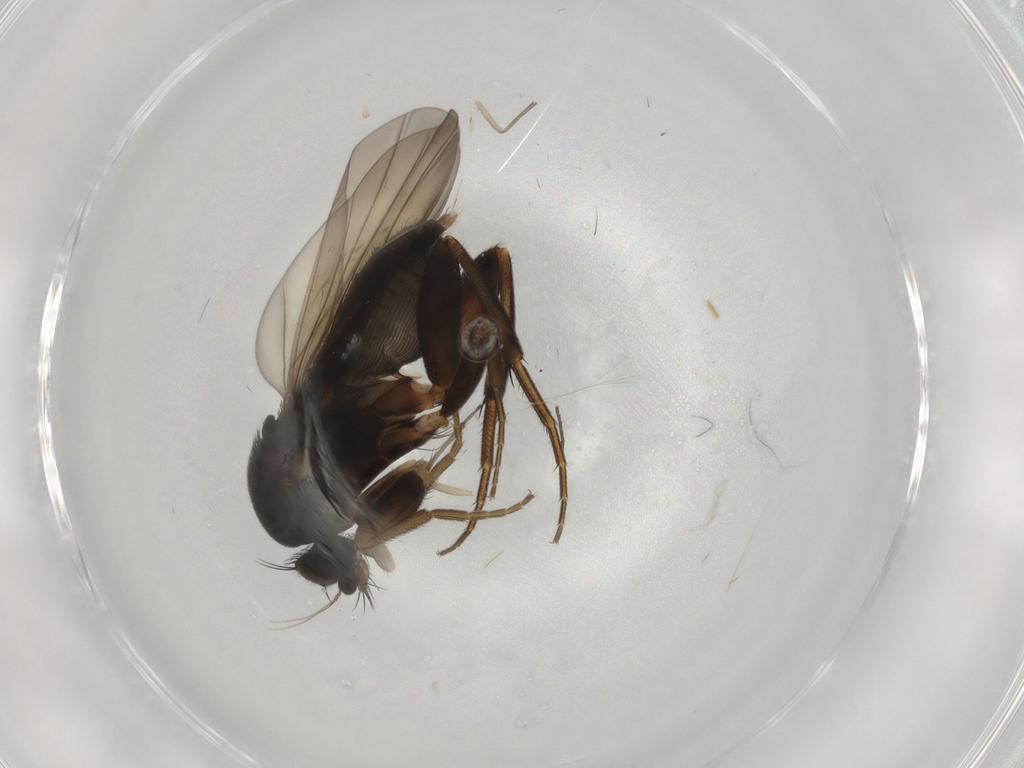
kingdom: Animalia
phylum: Arthropoda
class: Insecta
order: Diptera
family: Phoridae
